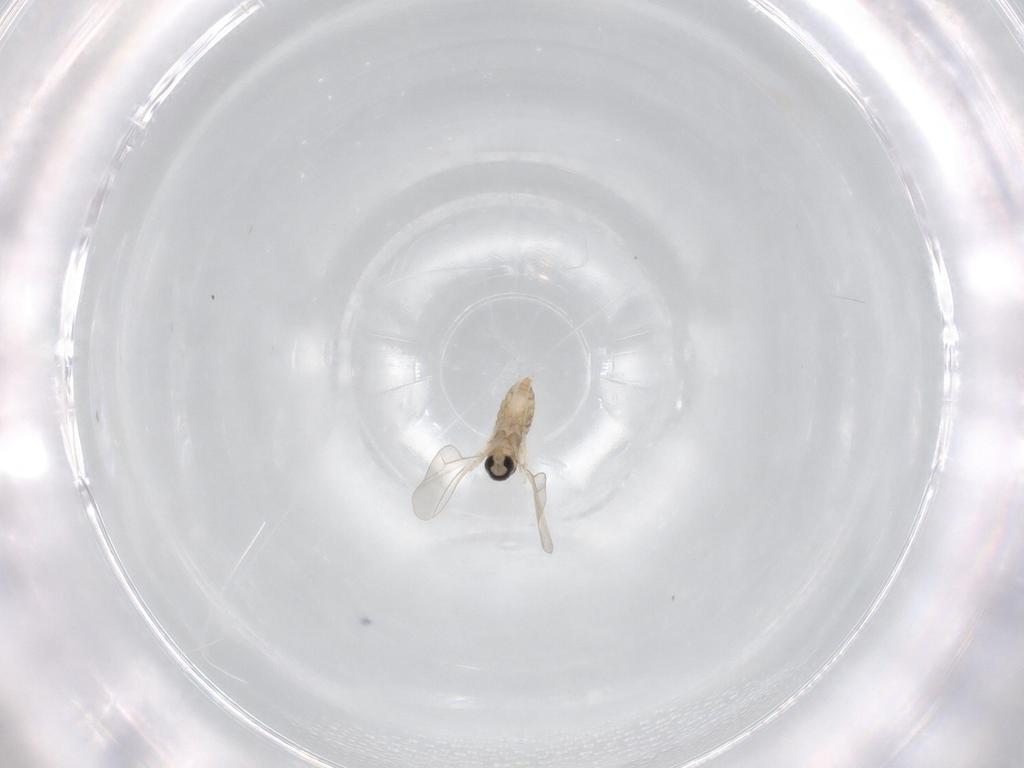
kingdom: Animalia
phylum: Arthropoda
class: Insecta
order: Diptera
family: Cecidomyiidae
